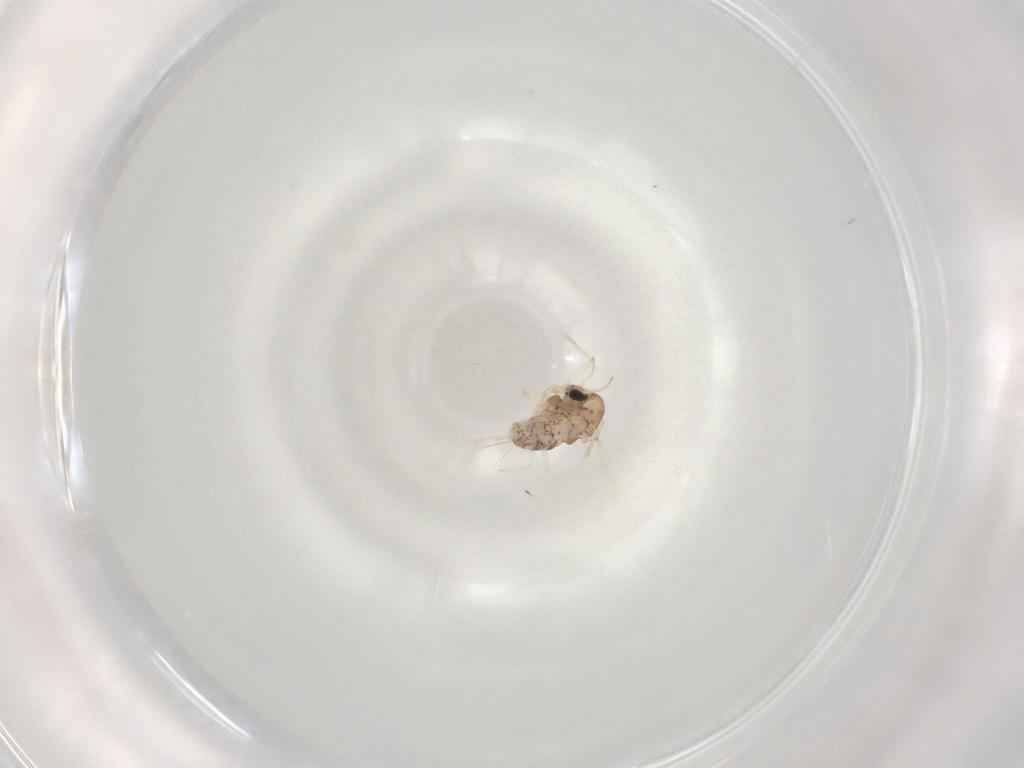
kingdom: Animalia
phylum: Arthropoda
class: Insecta
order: Diptera
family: Chironomidae
